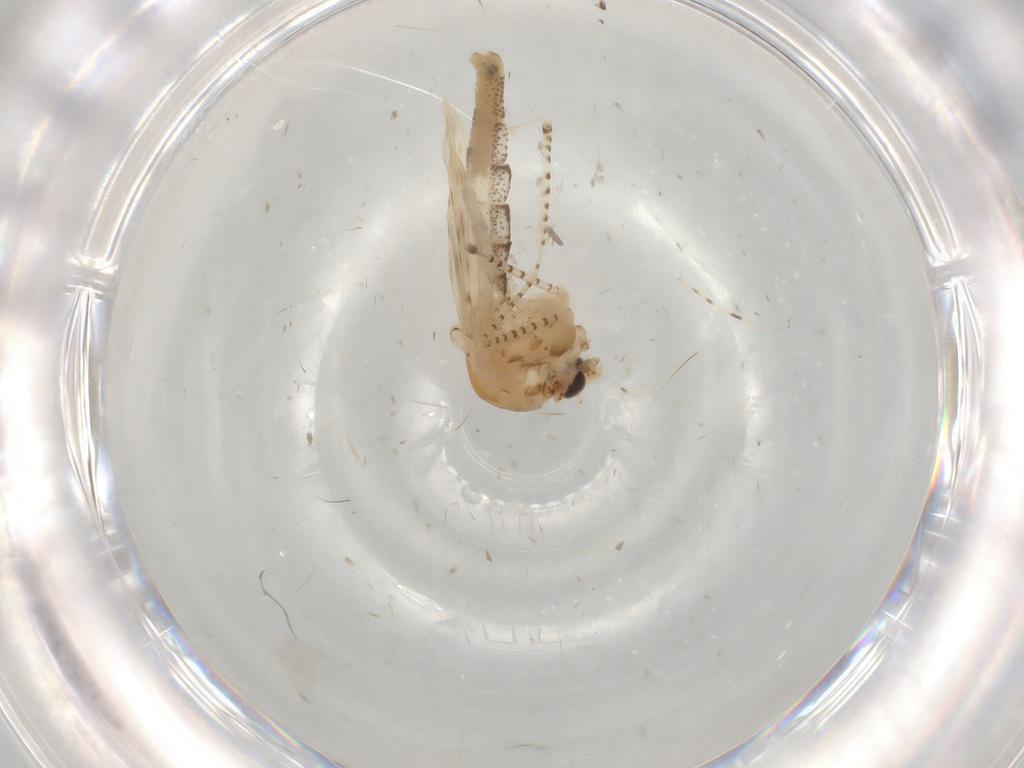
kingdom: Animalia
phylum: Arthropoda
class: Insecta
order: Diptera
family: Chaoboridae
